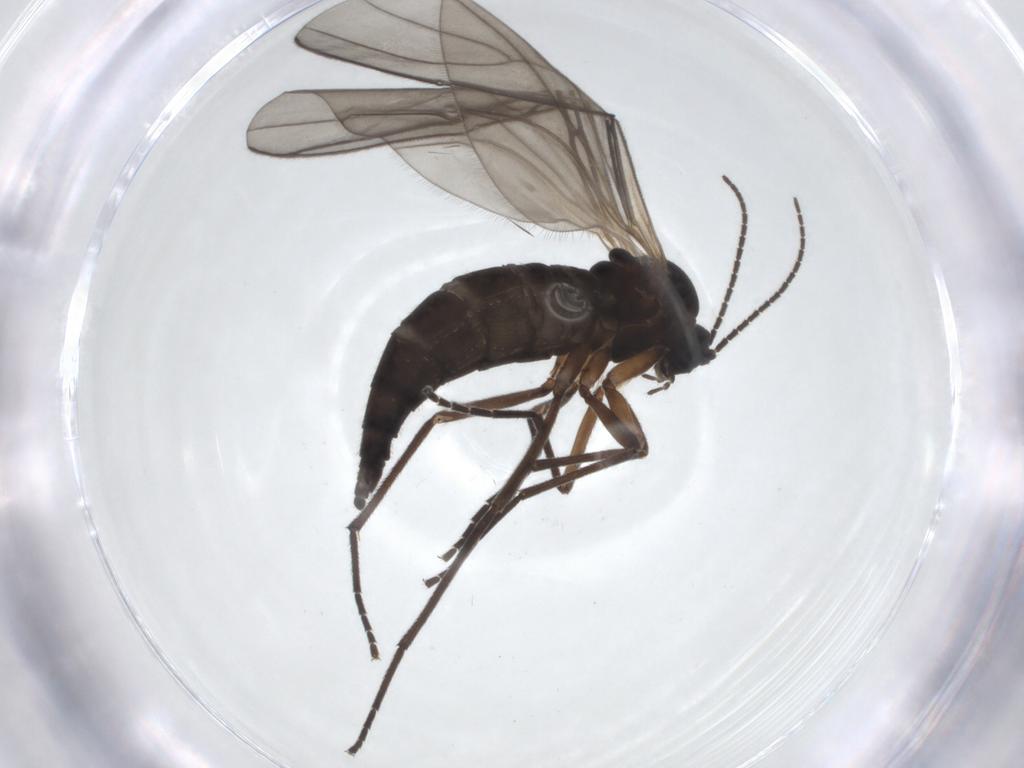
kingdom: Animalia
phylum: Arthropoda
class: Insecta
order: Diptera
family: Sciaridae
